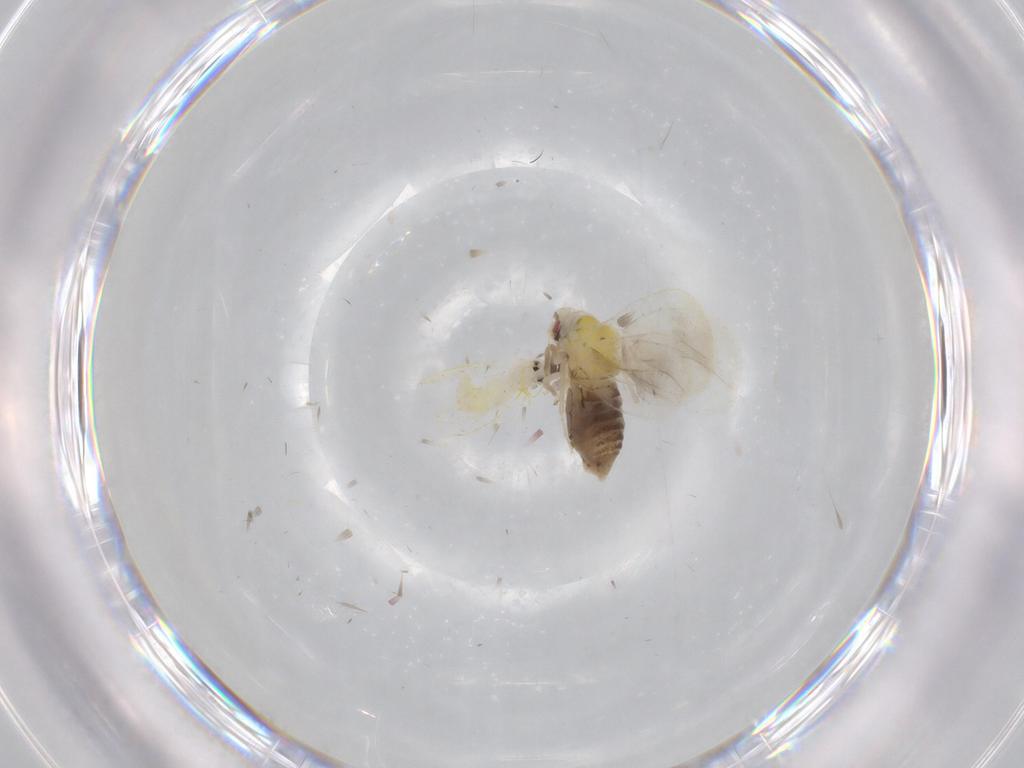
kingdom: Animalia
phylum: Arthropoda
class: Insecta
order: Hemiptera
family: Aleyrodidae
